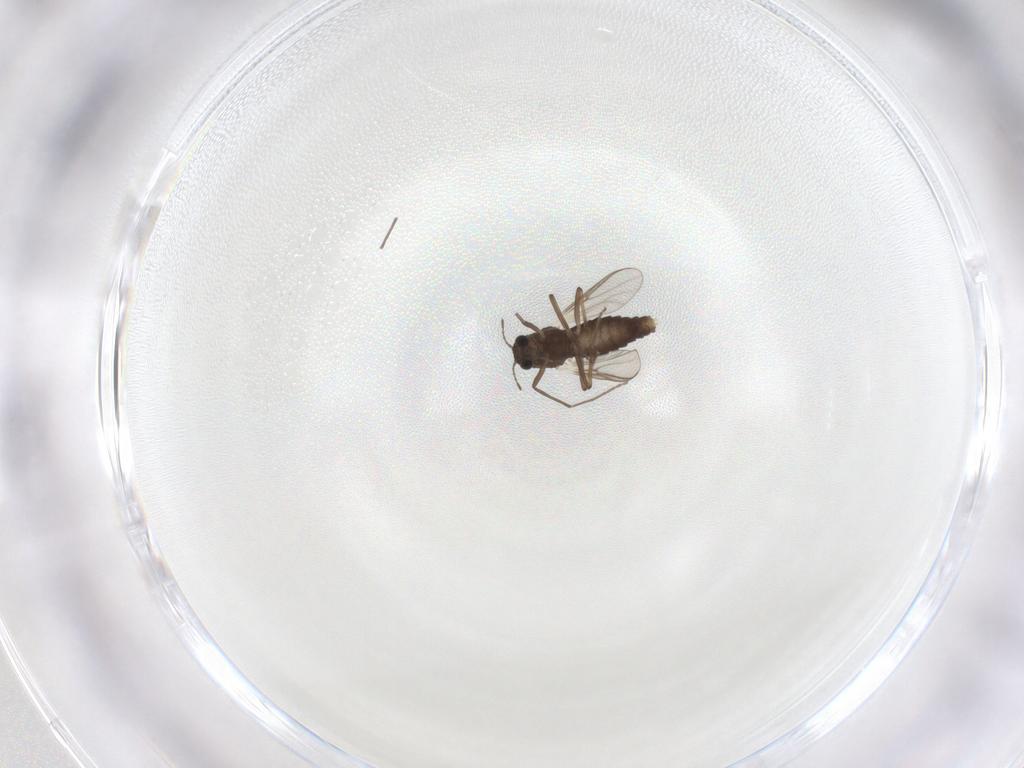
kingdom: Animalia
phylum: Arthropoda
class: Insecta
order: Diptera
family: Chironomidae
